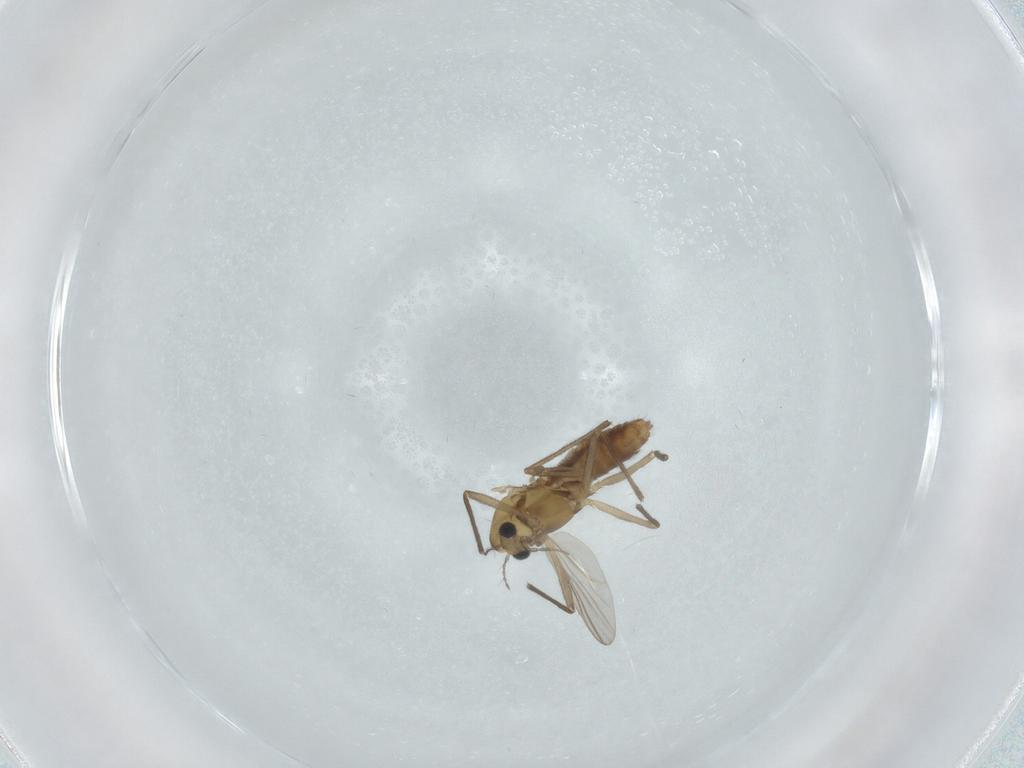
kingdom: Animalia
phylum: Arthropoda
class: Insecta
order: Diptera
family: Chironomidae
